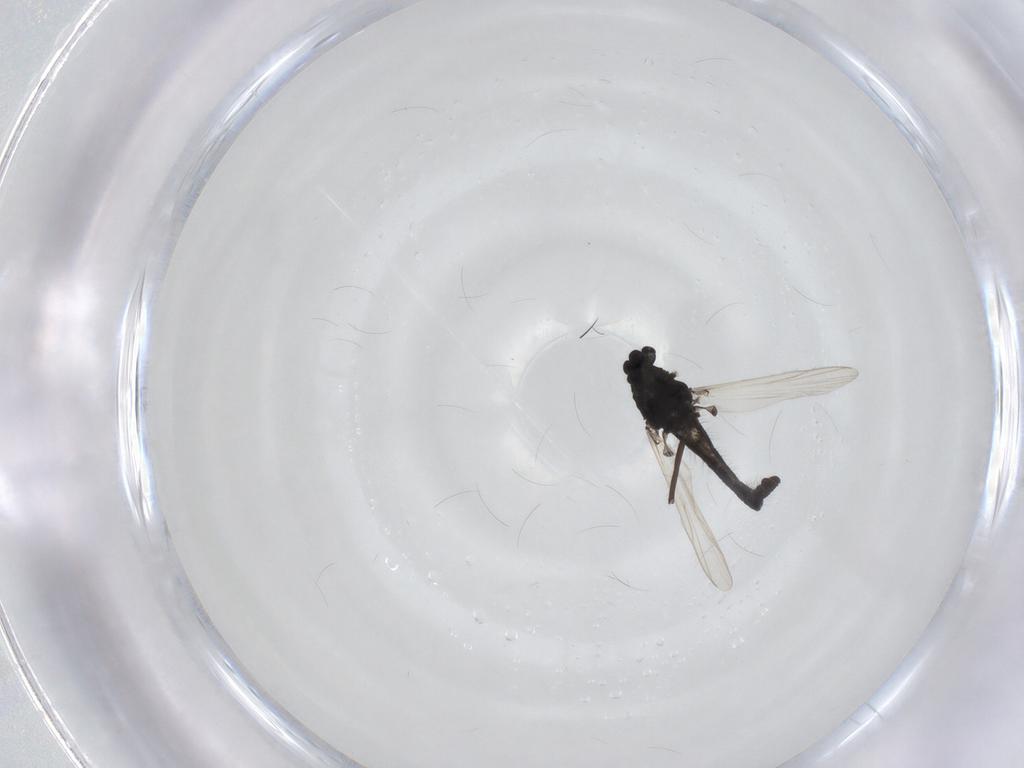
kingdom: Animalia
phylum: Arthropoda
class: Insecta
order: Diptera
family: Chironomidae
